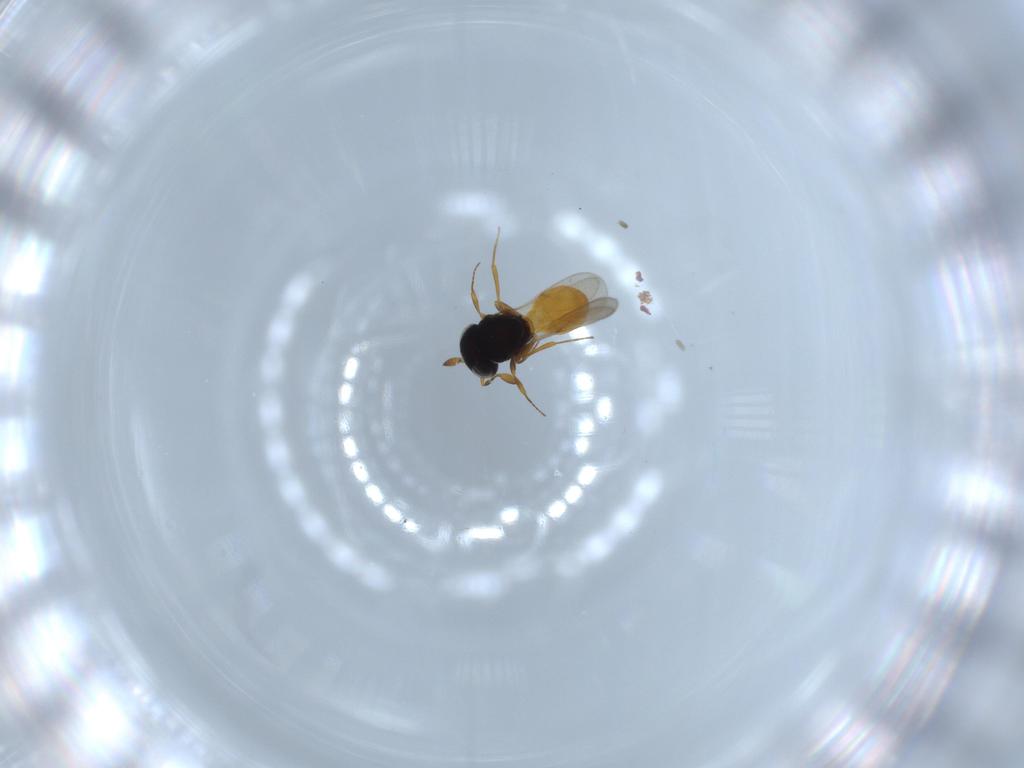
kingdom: Animalia
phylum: Arthropoda
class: Insecta
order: Hymenoptera
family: Scelionidae
